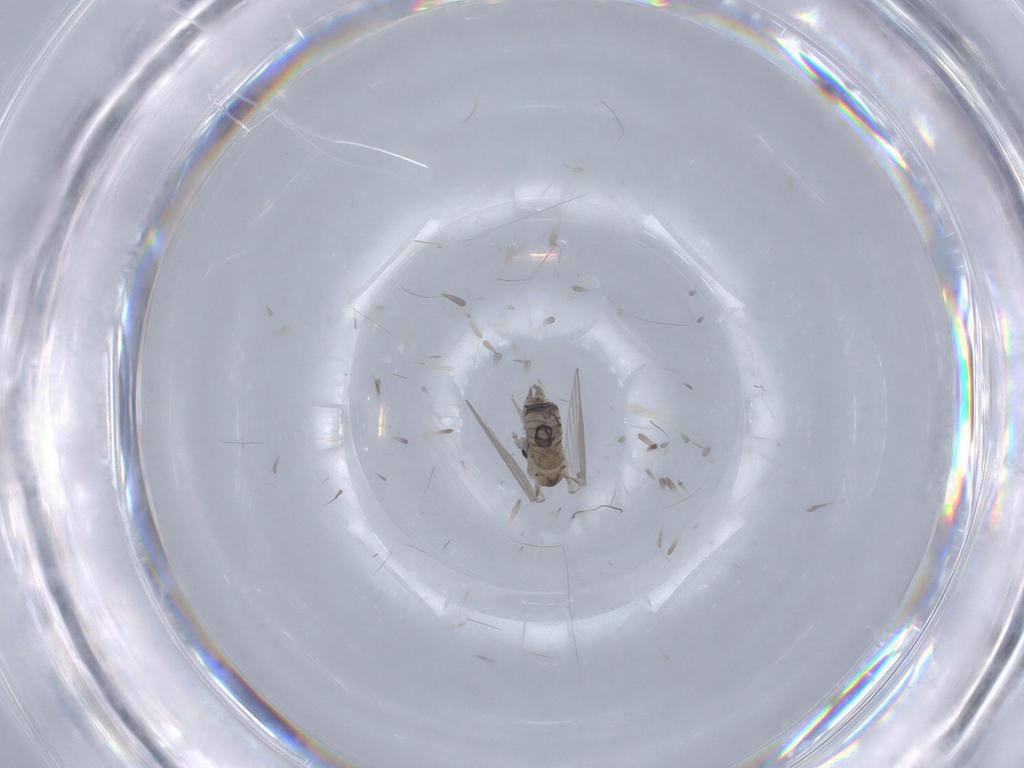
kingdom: Animalia
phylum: Arthropoda
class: Insecta
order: Diptera
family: Psychodidae
